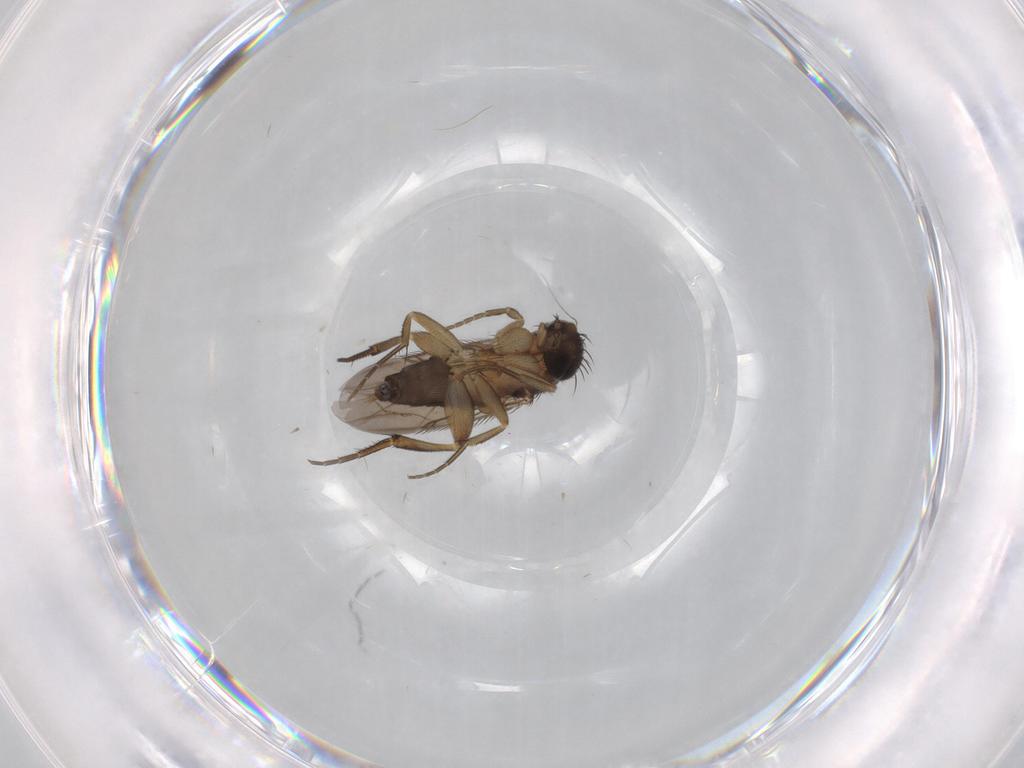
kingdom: Animalia
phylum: Arthropoda
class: Insecta
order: Diptera
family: Phoridae
